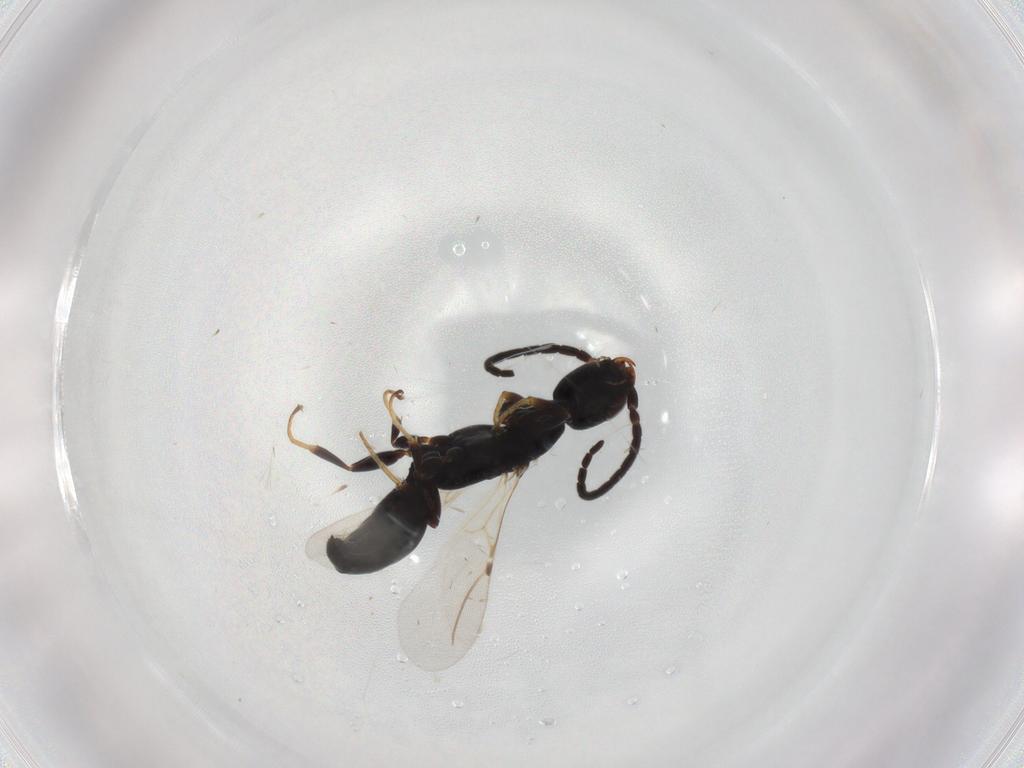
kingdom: Animalia
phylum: Arthropoda
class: Insecta
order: Hymenoptera
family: Bethylidae
